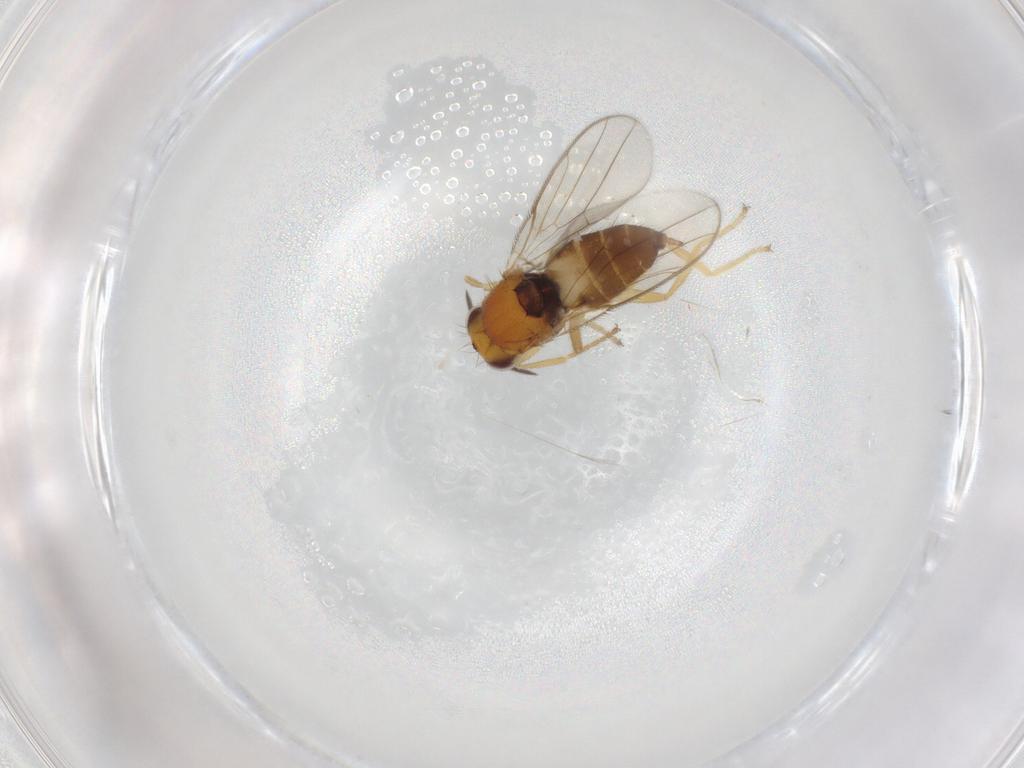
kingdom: Animalia
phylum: Arthropoda
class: Insecta
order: Diptera
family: Chloropidae
